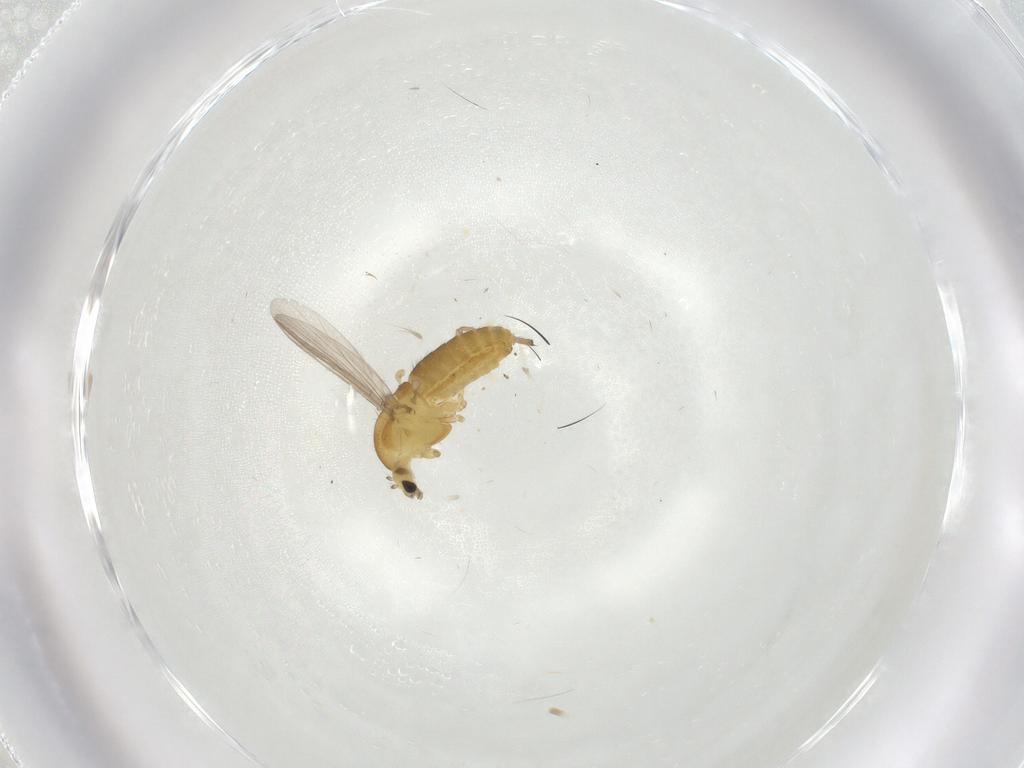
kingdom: Animalia
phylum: Arthropoda
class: Insecta
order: Diptera
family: Chironomidae
